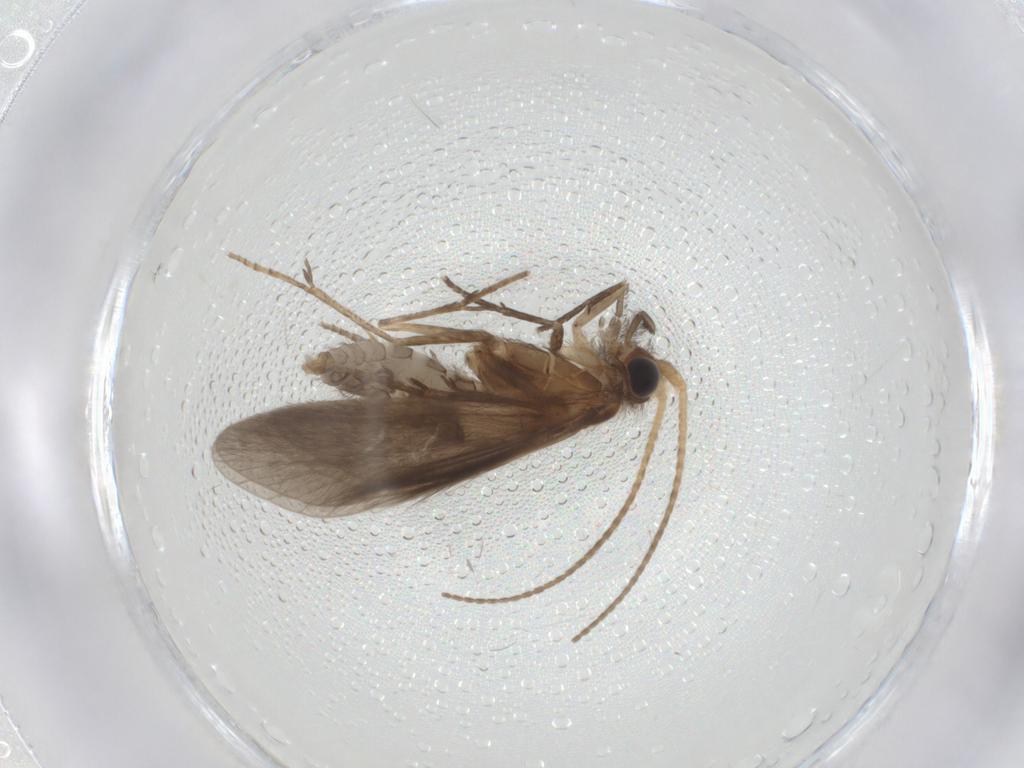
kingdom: Animalia
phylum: Arthropoda
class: Insecta
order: Trichoptera
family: Helicopsychidae
